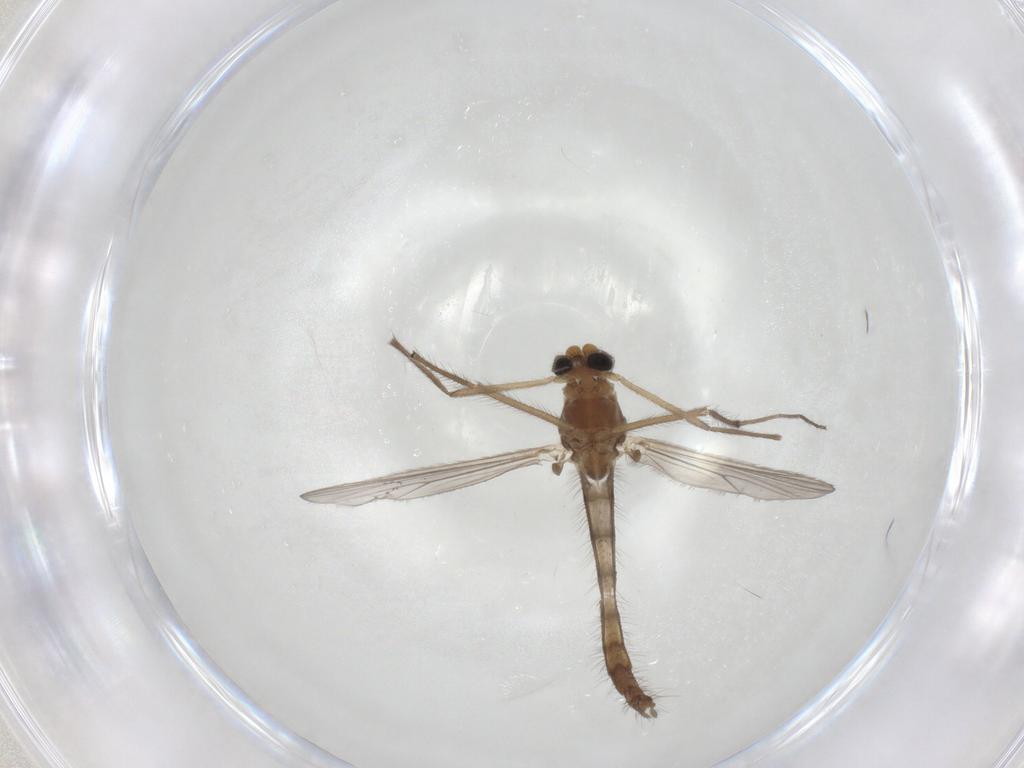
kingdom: Animalia
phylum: Arthropoda
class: Insecta
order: Diptera
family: Chironomidae
